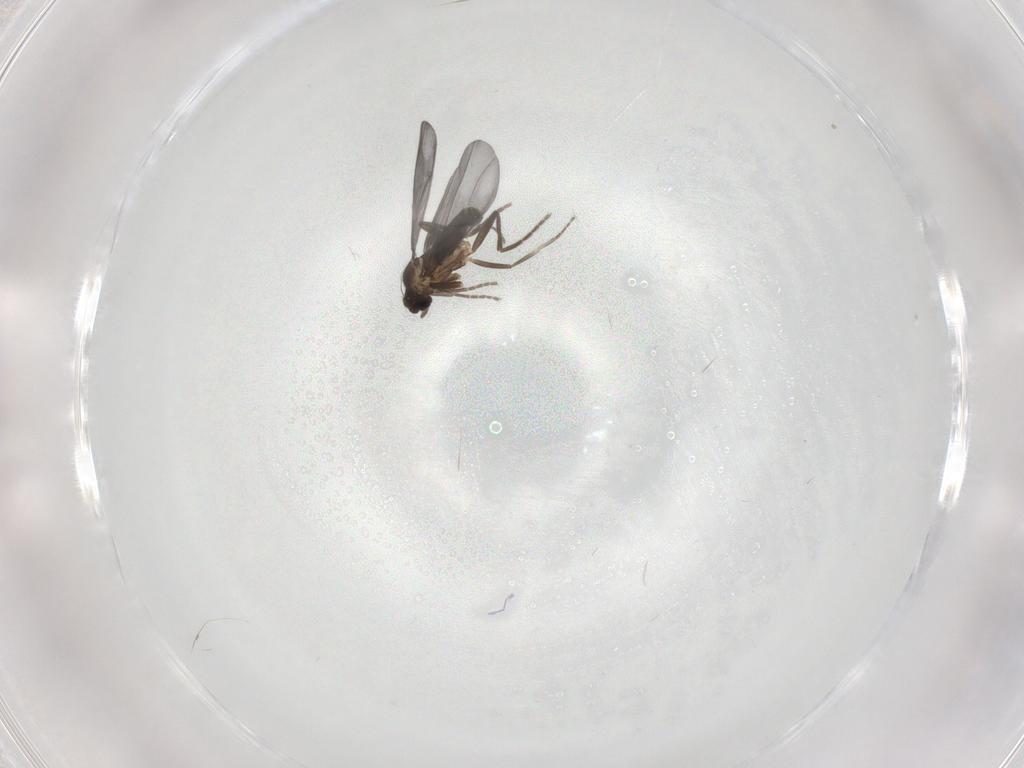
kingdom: Animalia
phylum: Arthropoda
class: Insecta
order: Diptera
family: Phoridae
